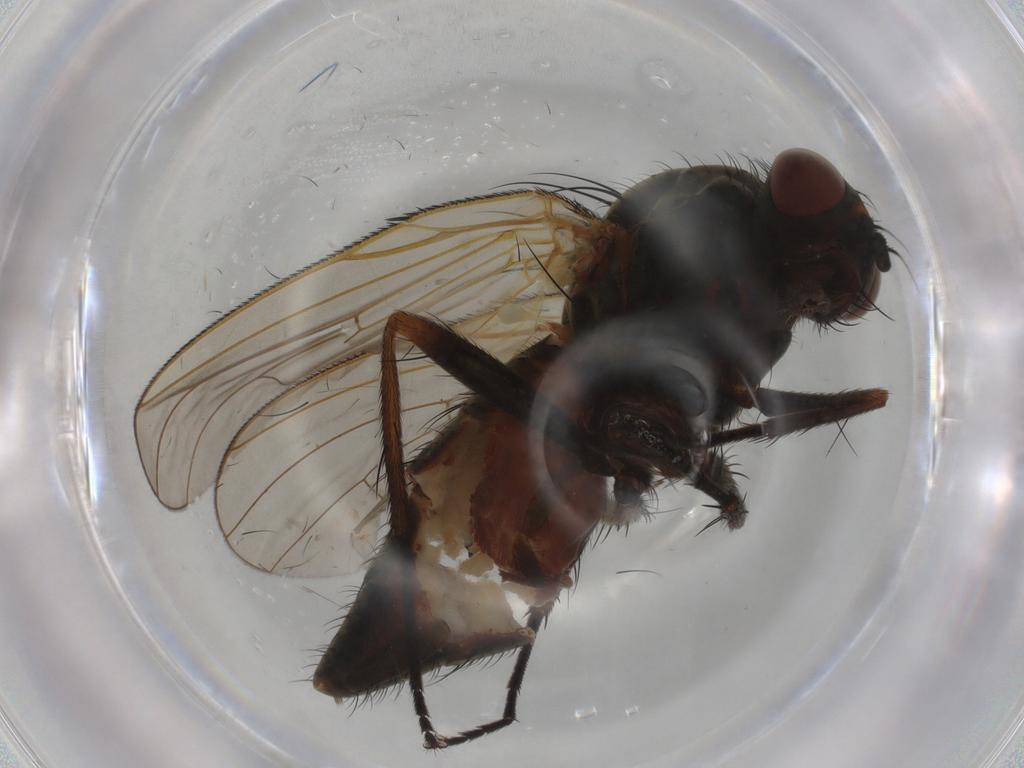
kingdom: Animalia
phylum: Arthropoda
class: Insecta
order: Diptera
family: Anthomyiidae
